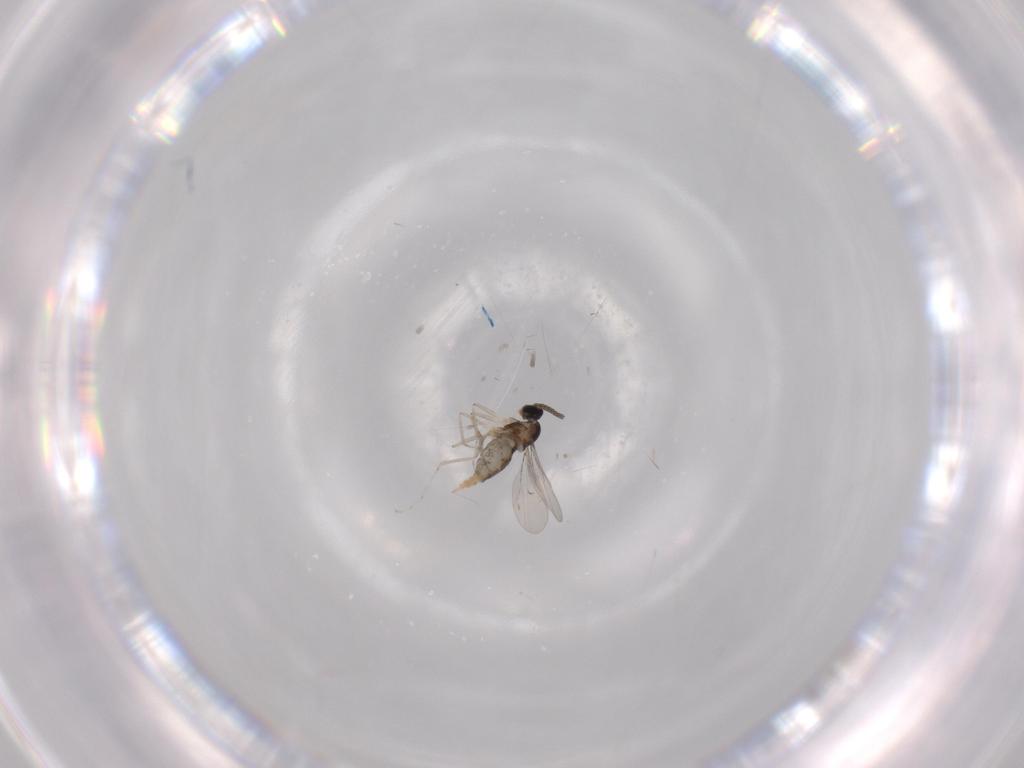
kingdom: Animalia
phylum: Arthropoda
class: Insecta
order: Diptera
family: Cecidomyiidae
